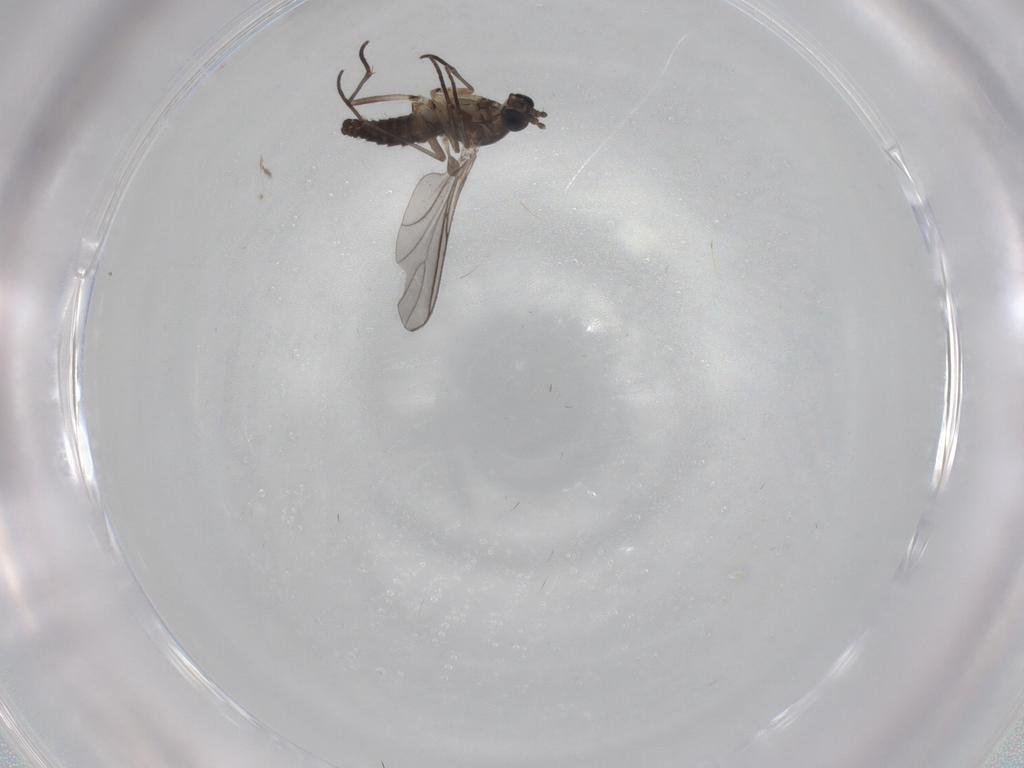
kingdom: Animalia
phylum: Arthropoda
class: Insecta
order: Diptera
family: Sciaridae
